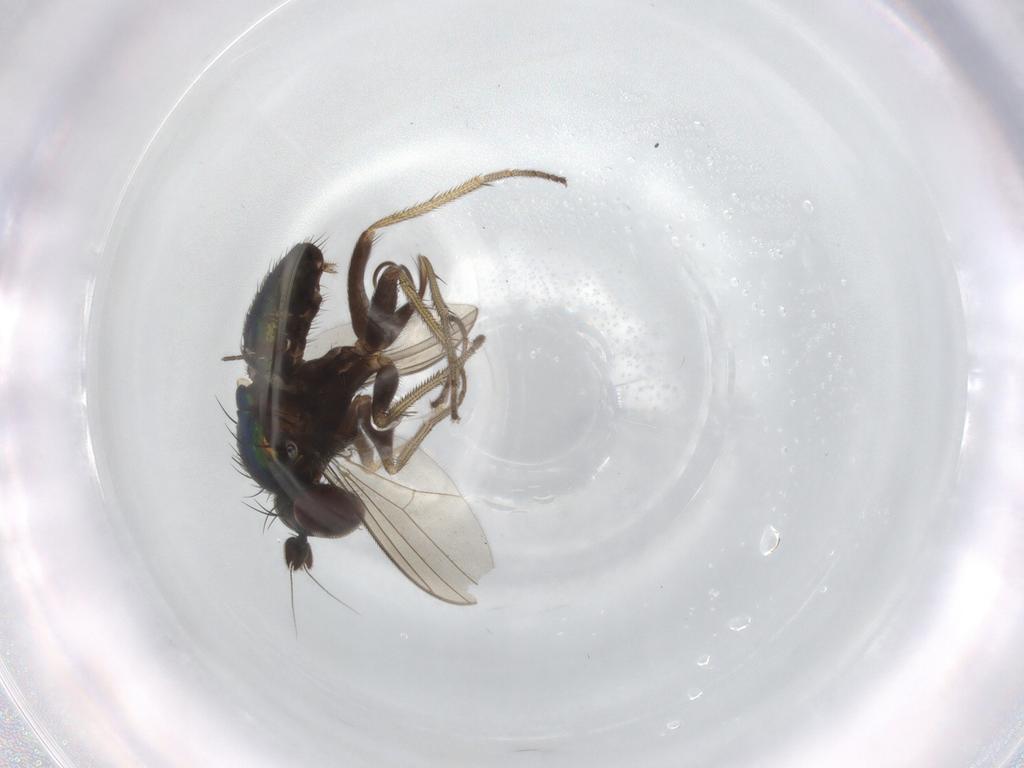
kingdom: Animalia
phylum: Arthropoda
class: Insecta
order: Diptera
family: Dolichopodidae
